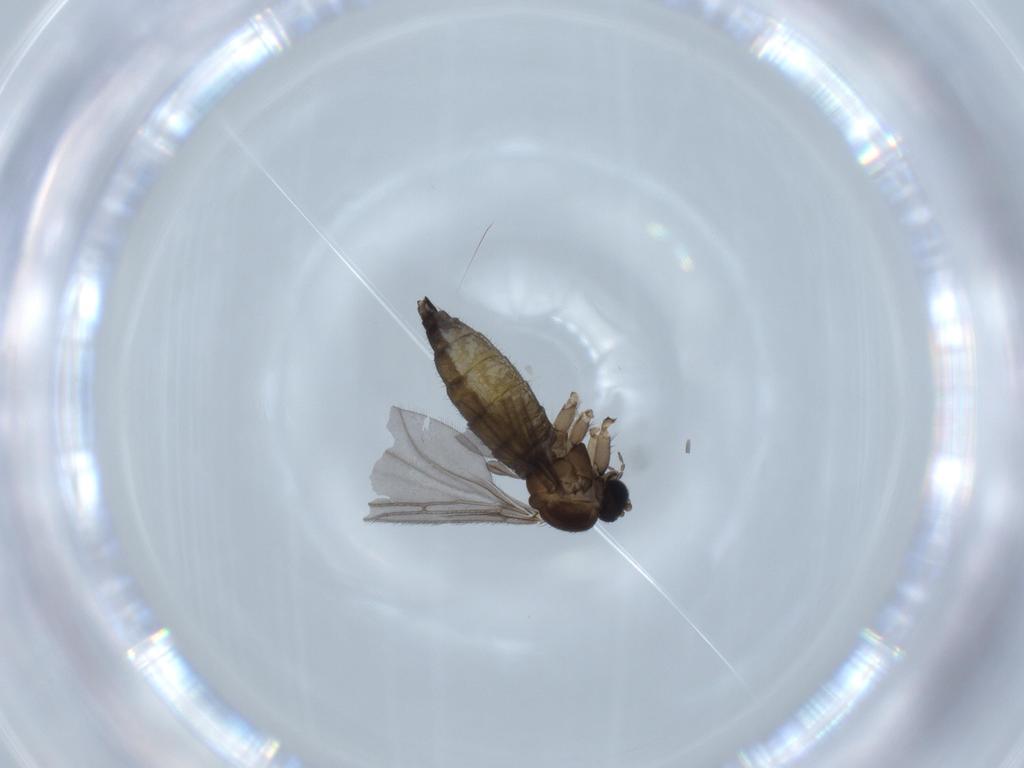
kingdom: Animalia
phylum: Arthropoda
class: Insecta
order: Diptera
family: Sciaridae
